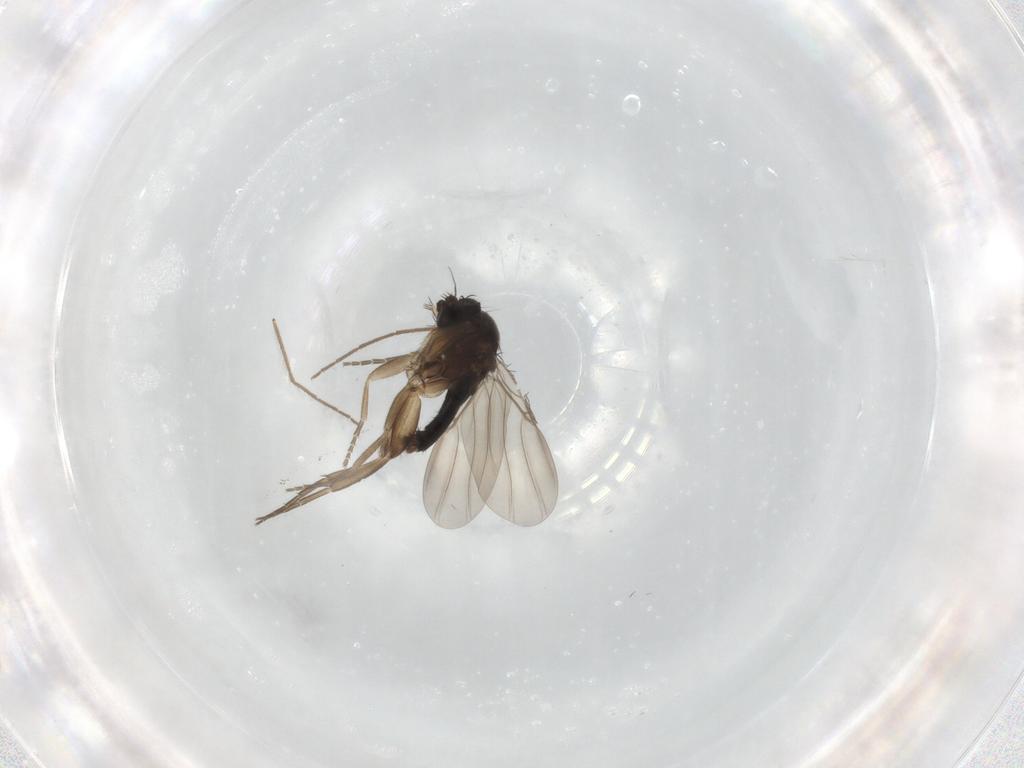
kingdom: Animalia
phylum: Arthropoda
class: Insecta
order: Diptera
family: Phoridae
